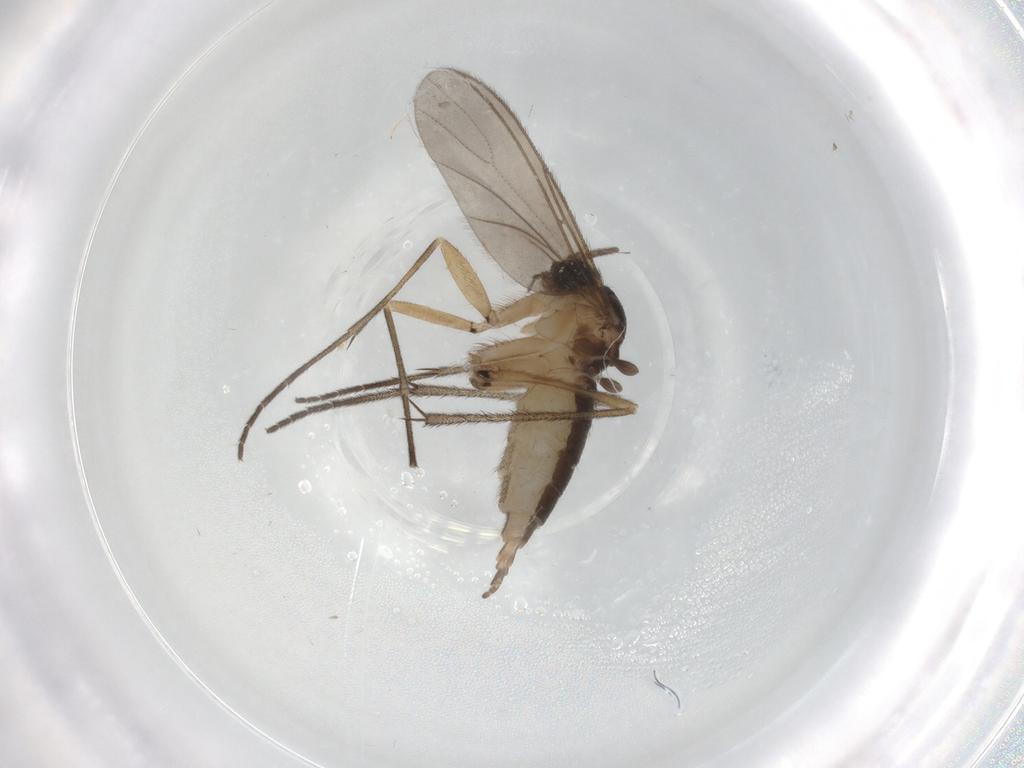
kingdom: Animalia
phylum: Arthropoda
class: Insecta
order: Diptera
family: Sciaridae
